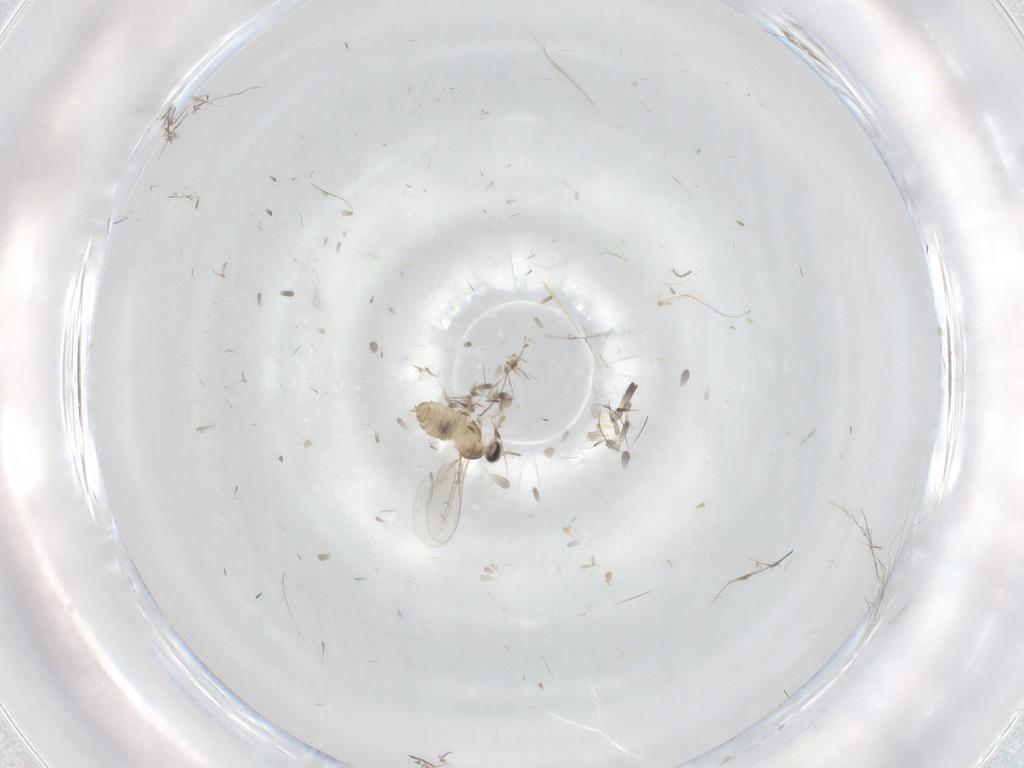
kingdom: Animalia
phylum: Arthropoda
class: Insecta
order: Diptera
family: Cecidomyiidae
